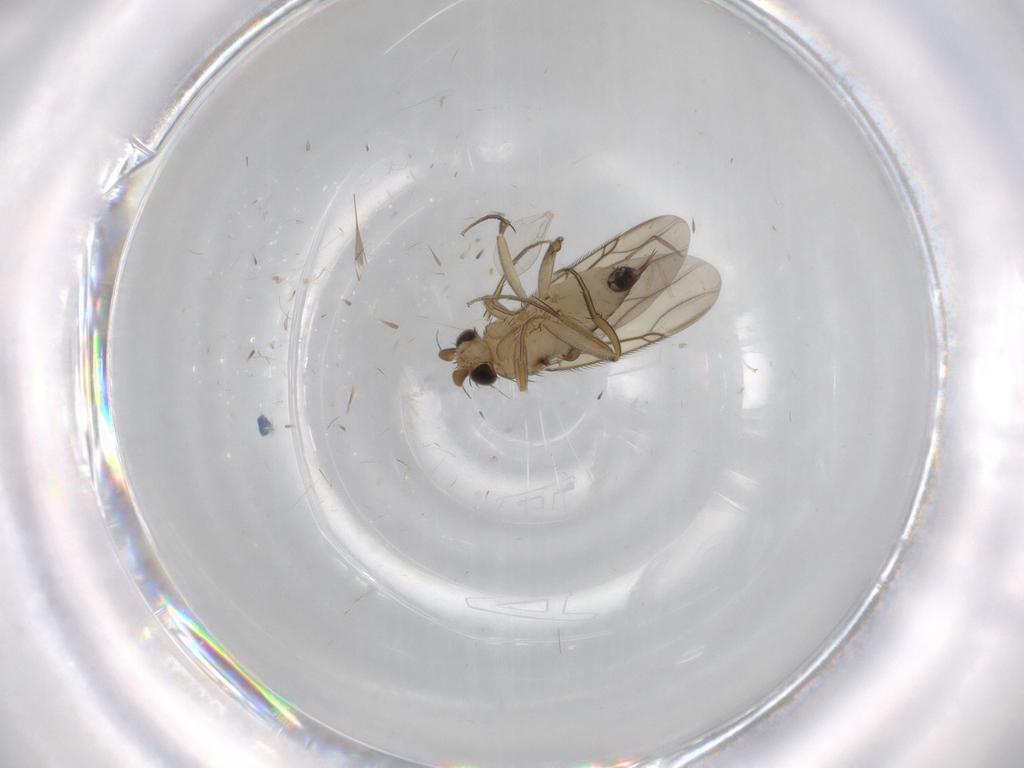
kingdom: Animalia
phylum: Arthropoda
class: Insecta
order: Diptera
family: Phoridae
